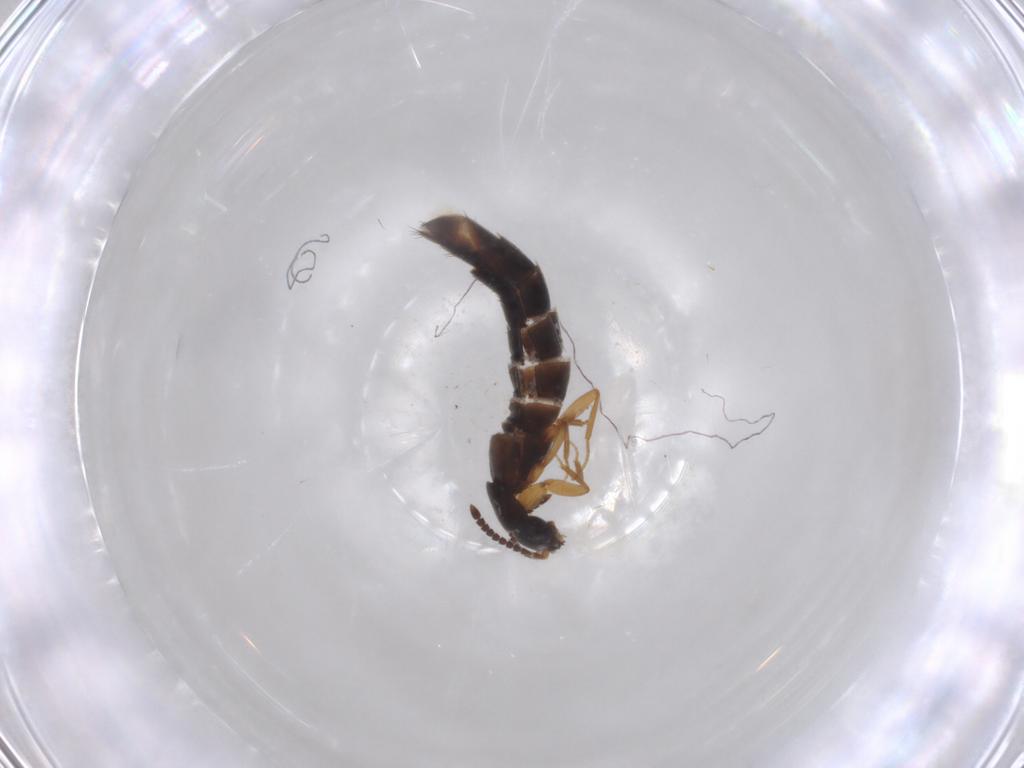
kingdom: Animalia
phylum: Arthropoda
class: Insecta
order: Coleoptera
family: Staphylinidae
